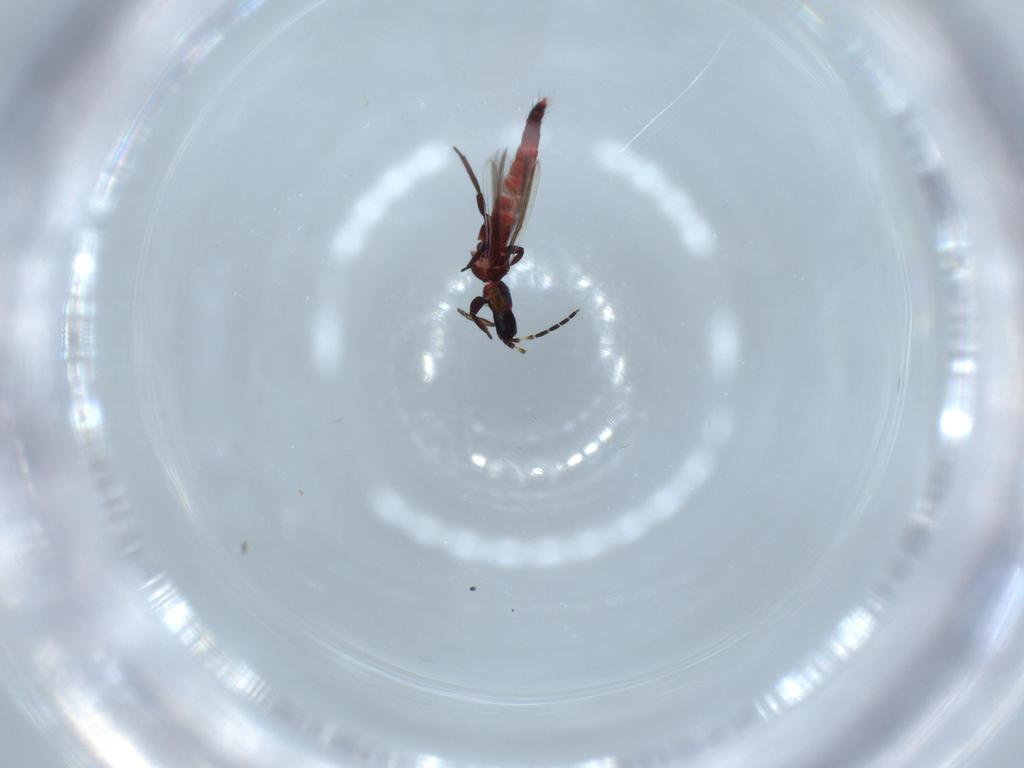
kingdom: Animalia
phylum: Arthropoda
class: Insecta
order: Thysanoptera
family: Aeolothripidae
